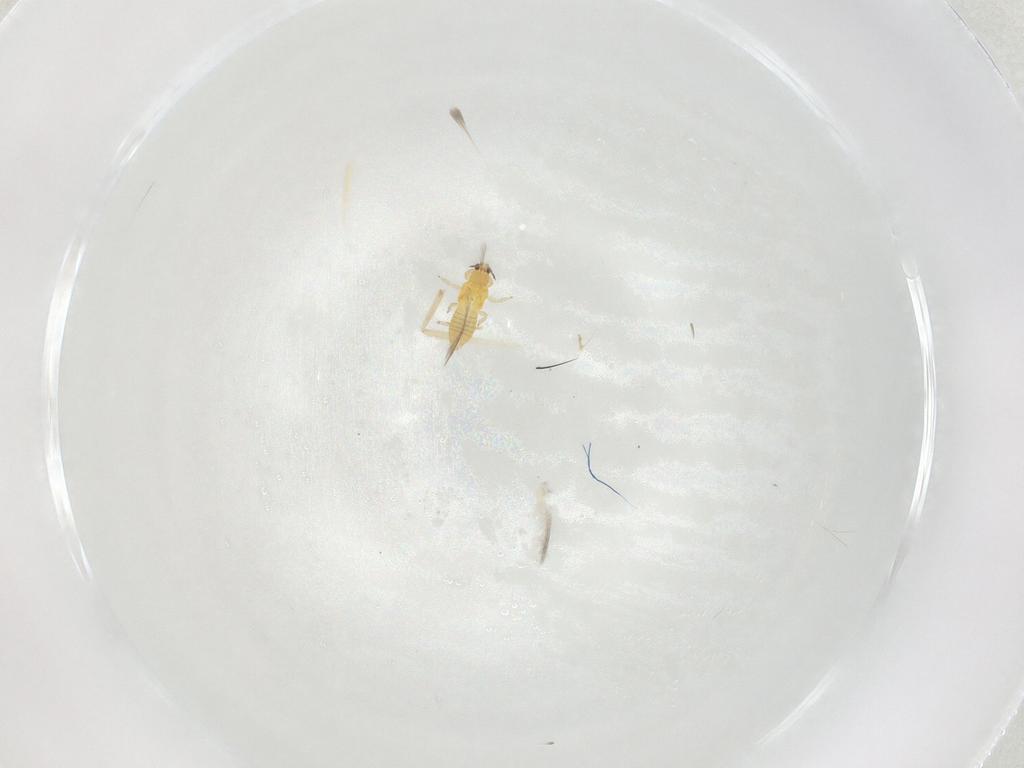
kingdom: Animalia
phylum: Arthropoda
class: Insecta
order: Thysanoptera
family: Thripidae
